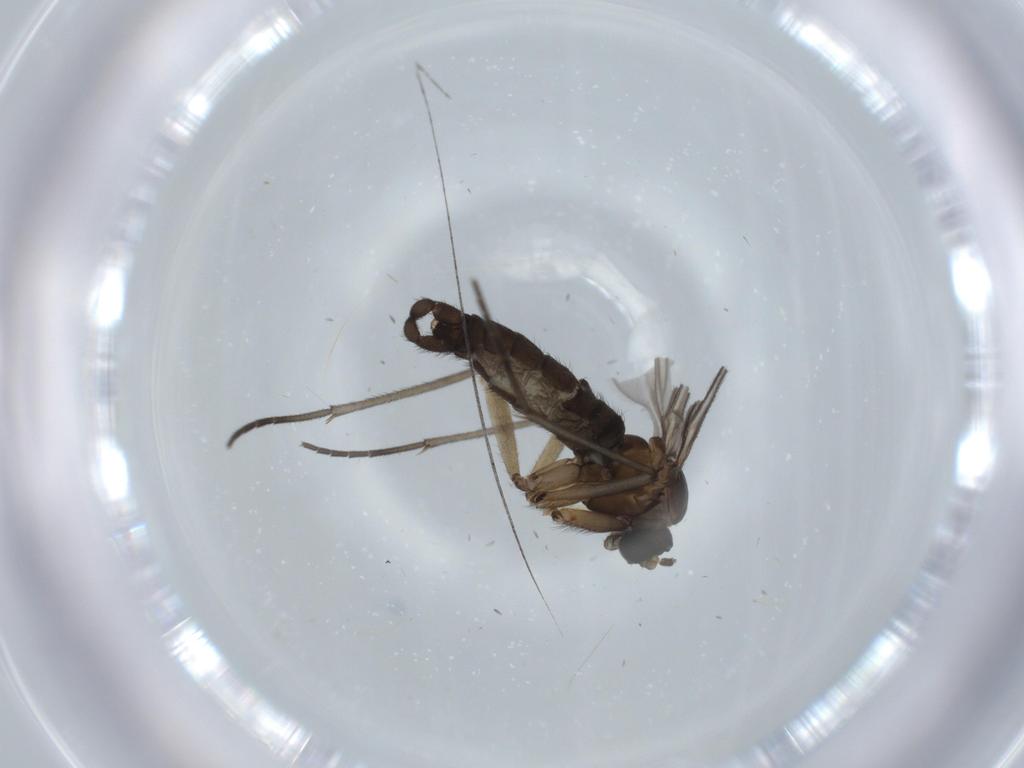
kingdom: Animalia
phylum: Arthropoda
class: Insecta
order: Diptera
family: Sciaridae
